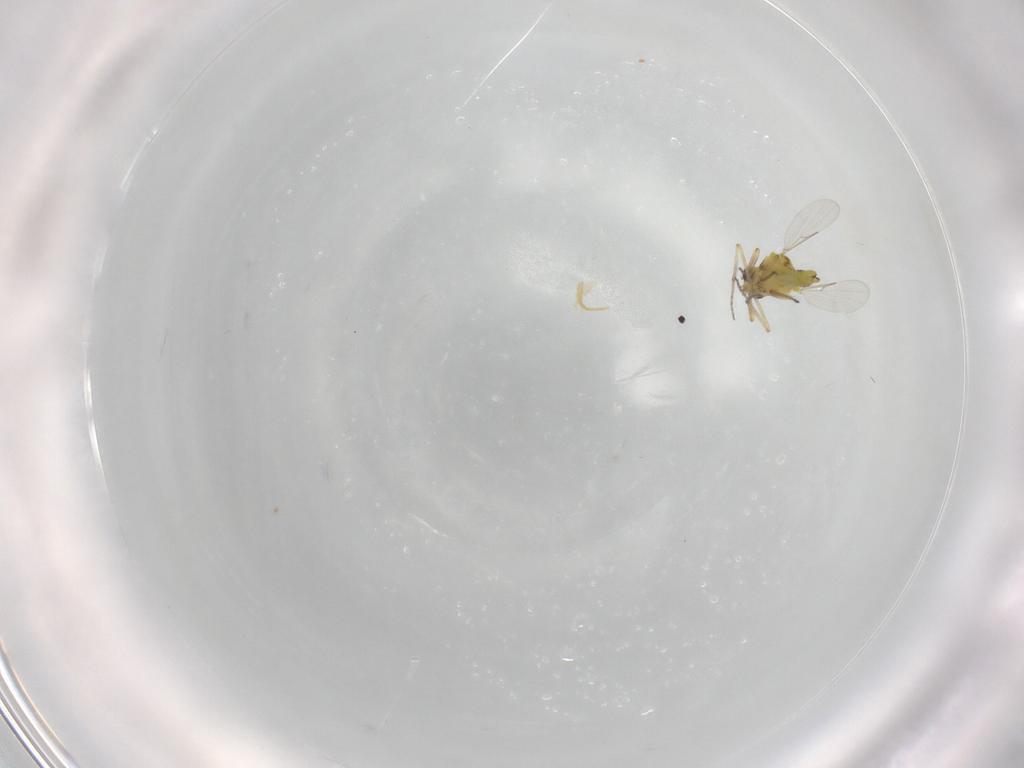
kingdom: Animalia
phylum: Arthropoda
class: Insecta
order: Diptera
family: Ceratopogonidae
